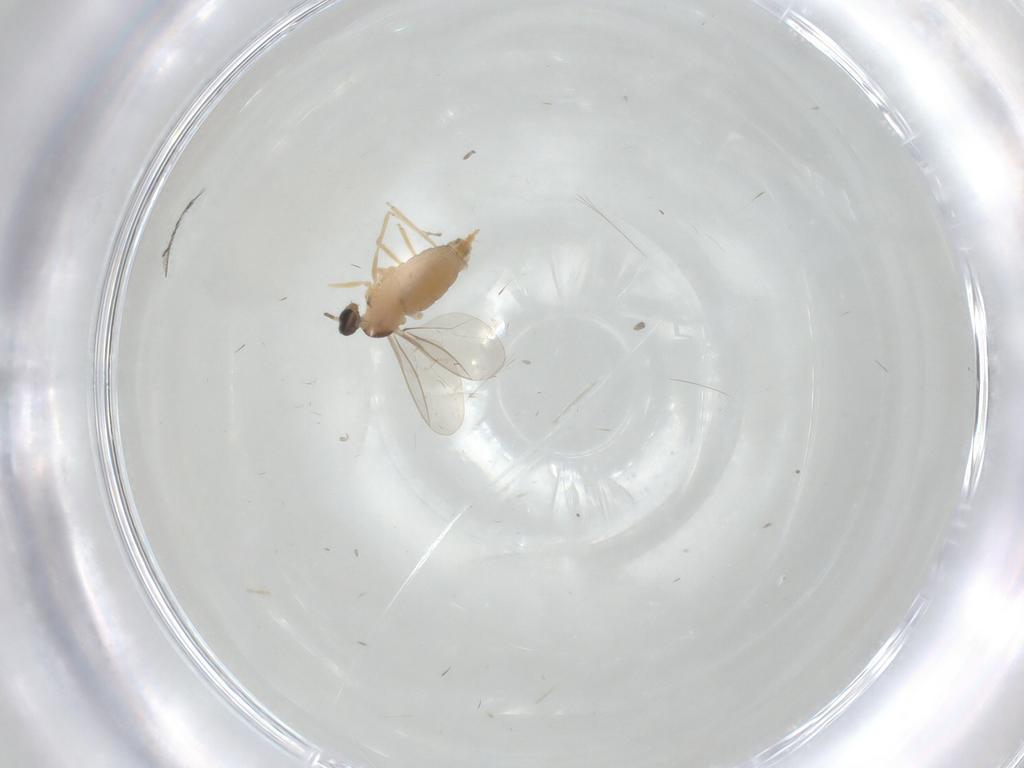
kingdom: Animalia
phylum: Arthropoda
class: Insecta
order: Diptera
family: Cecidomyiidae
